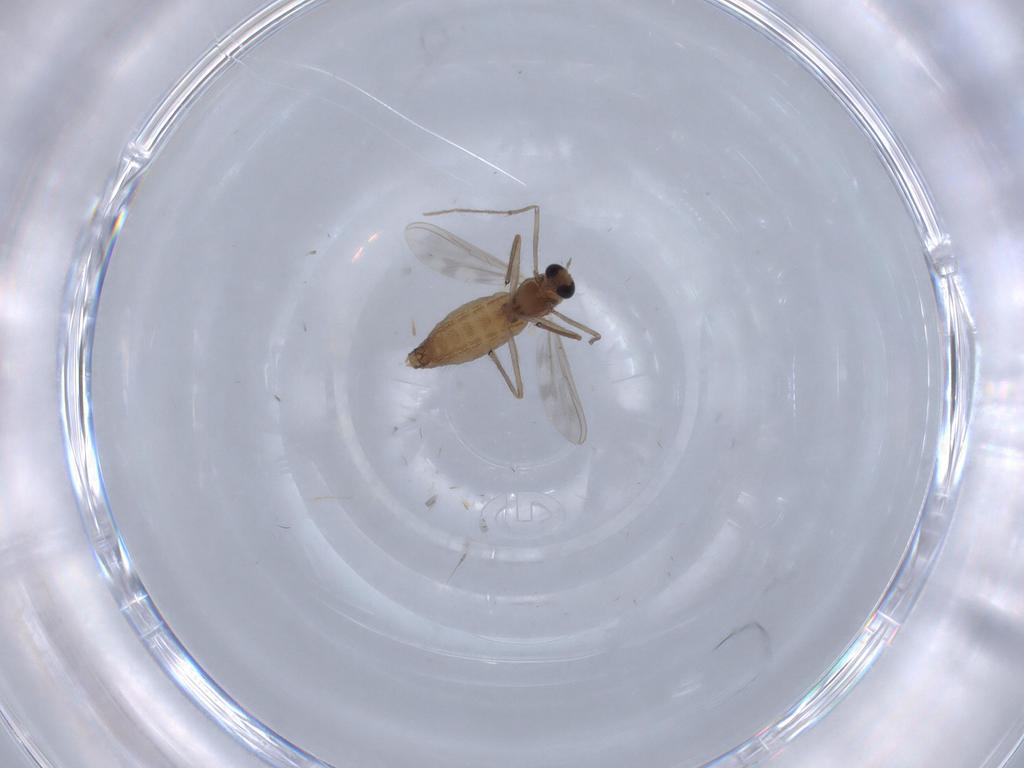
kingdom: Animalia
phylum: Arthropoda
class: Insecta
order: Diptera
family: Chironomidae
